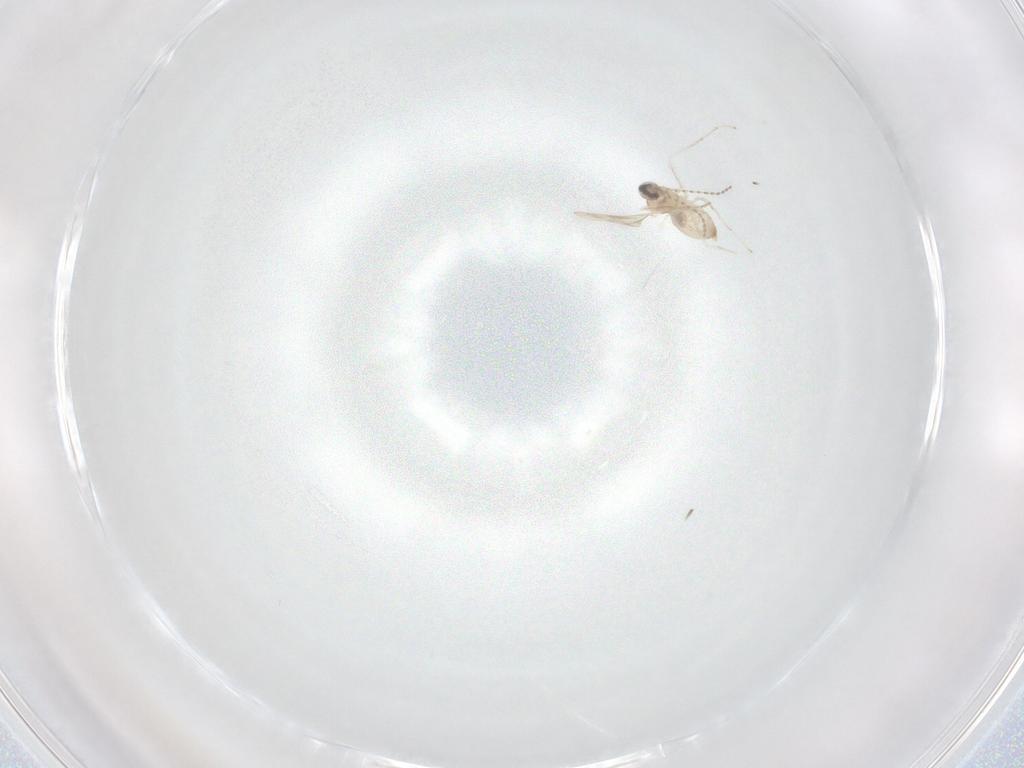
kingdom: Animalia
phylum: Arthropoda
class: Insecta
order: Diptera
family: Cecidomyiidae
